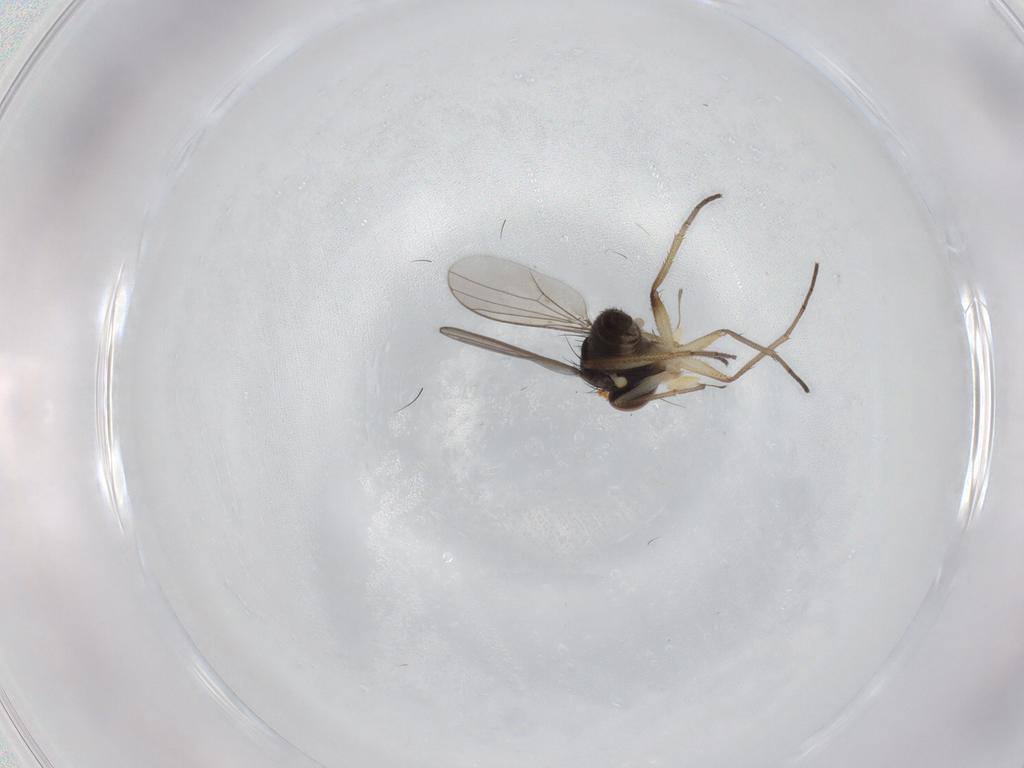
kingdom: Animalia
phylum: Arthropoda
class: Insecta
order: Diptera
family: Dolichopodidae
